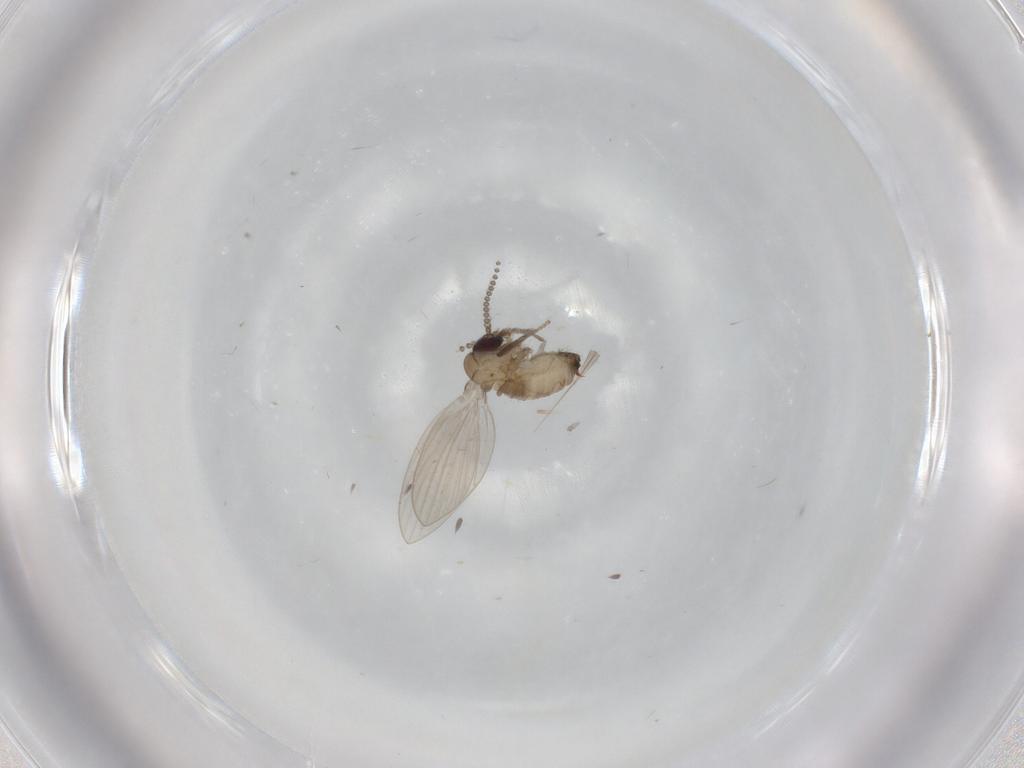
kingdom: Animalia
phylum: Arthropoda
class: Insecta
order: Diptera
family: Psychodidae
